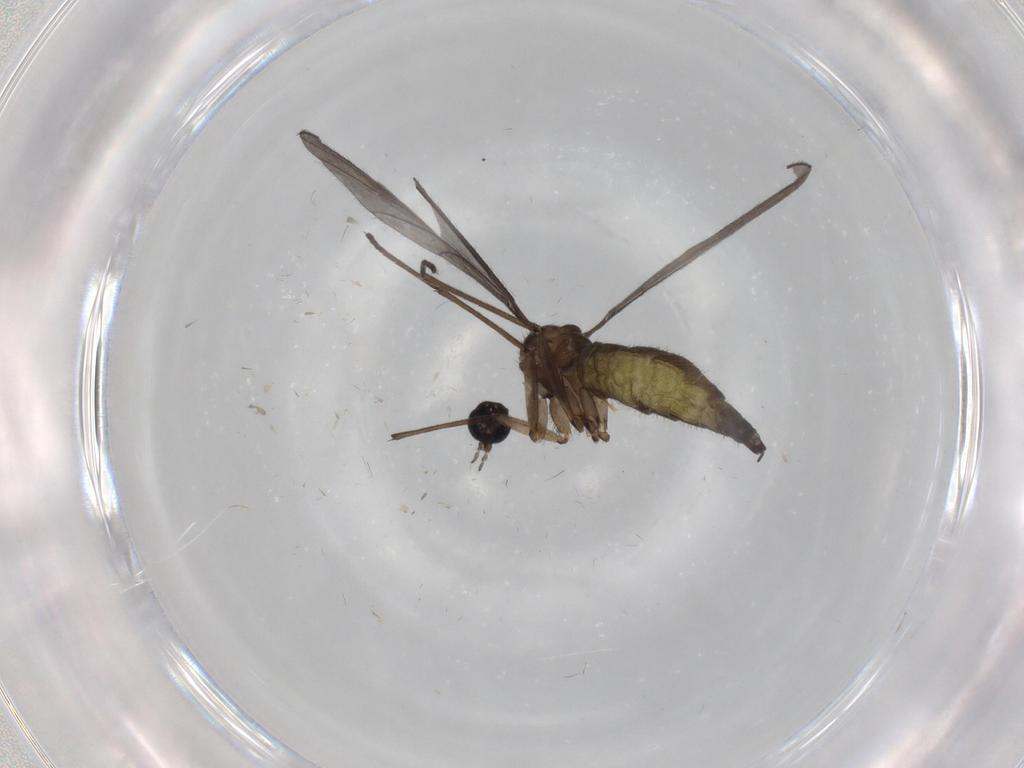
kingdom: Animalia
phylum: Arthropoda
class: Insecta
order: Diptera
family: Sciaridae
